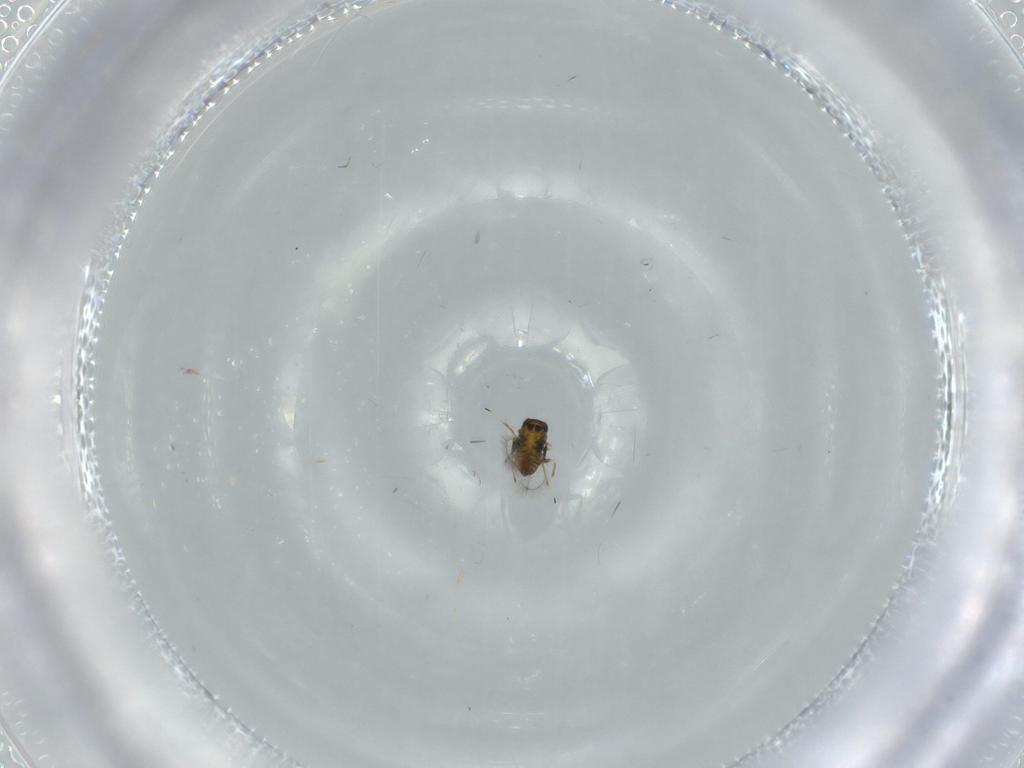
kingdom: Animalia
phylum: Arthropoda
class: Insecta
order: Hymenoptera
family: Trichogrammatidae
